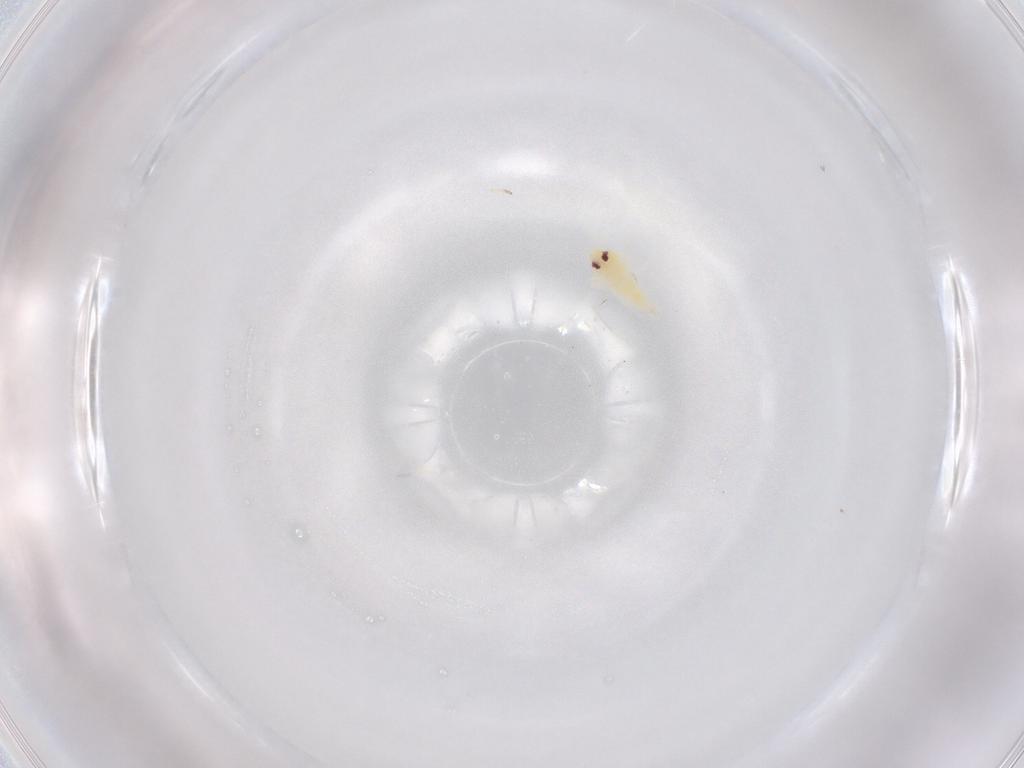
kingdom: Animalia
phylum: Arthropoda
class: Insecta
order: Hemiptera
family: Aleyrodidae
